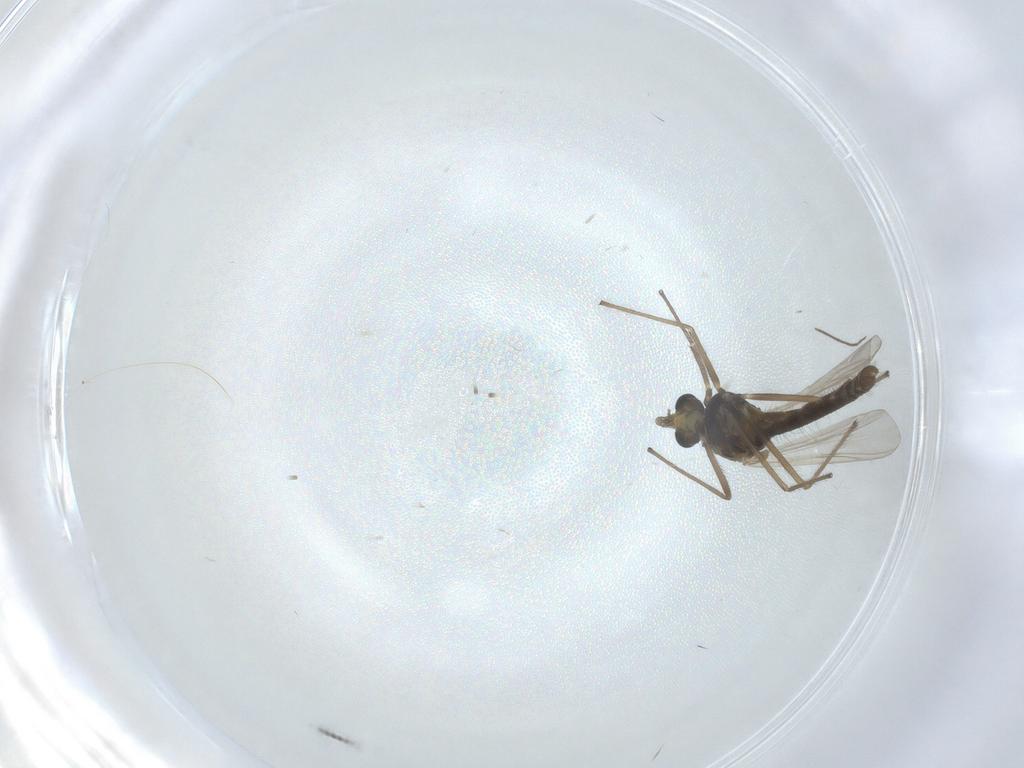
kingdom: Animalia
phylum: Arthropoda
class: Insecta
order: Diptera
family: Chironomidae
